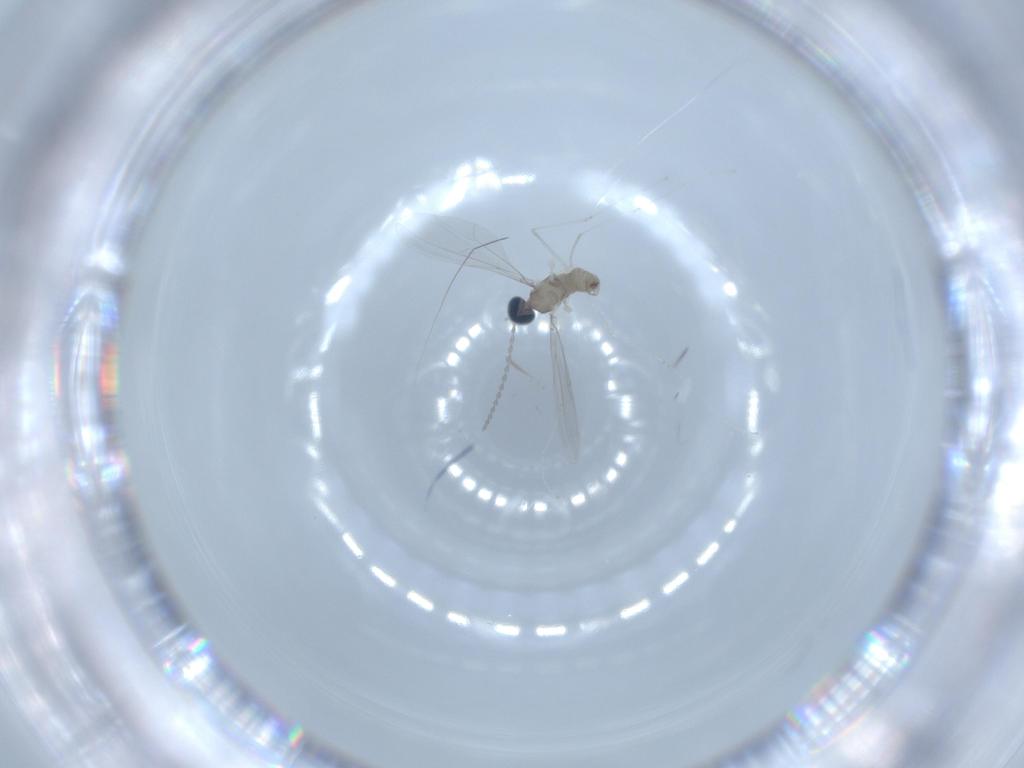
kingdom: Animalia
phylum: Arthropoda
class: Insecta
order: Diptera
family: Cecidomyiidae
